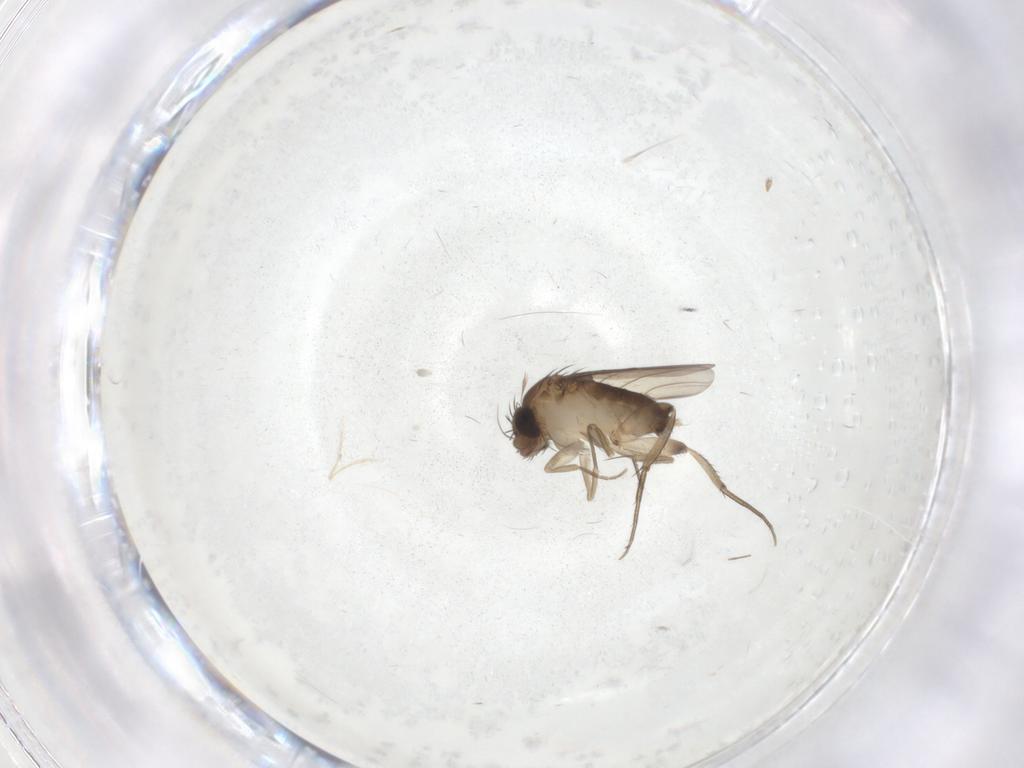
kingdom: Animalia
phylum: Arthropoda
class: Insecta
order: Diptera
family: Phoridae
